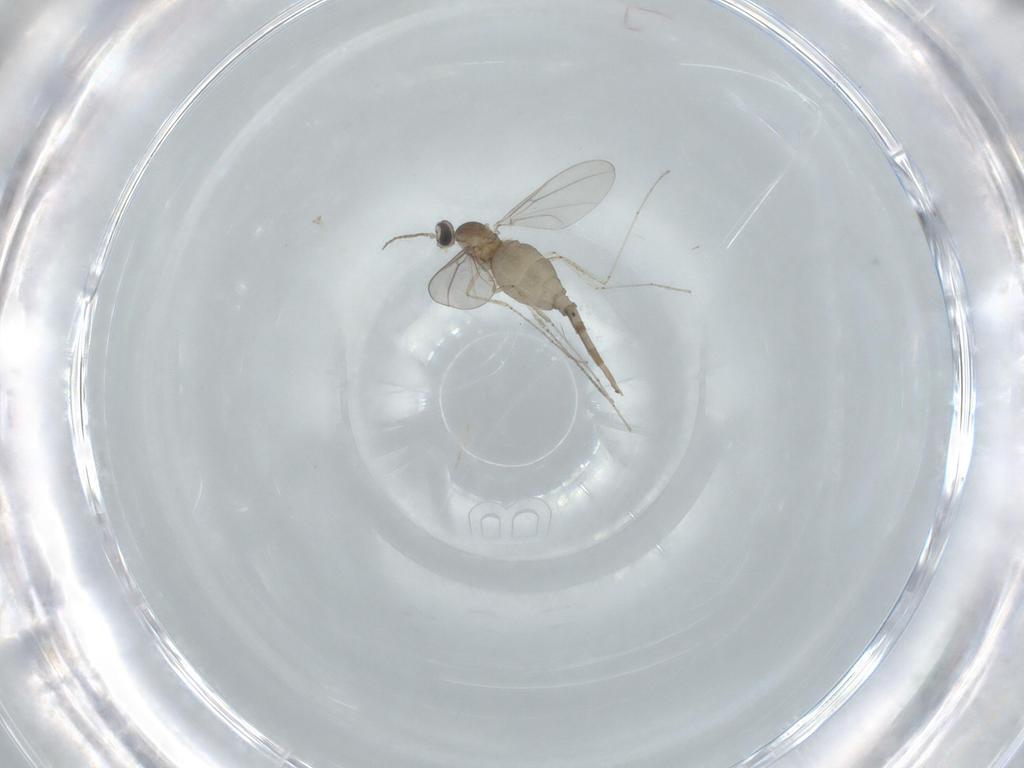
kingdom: Animalia
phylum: Arthropoda
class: Insecta
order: Diptera
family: Cecidomyiidae
